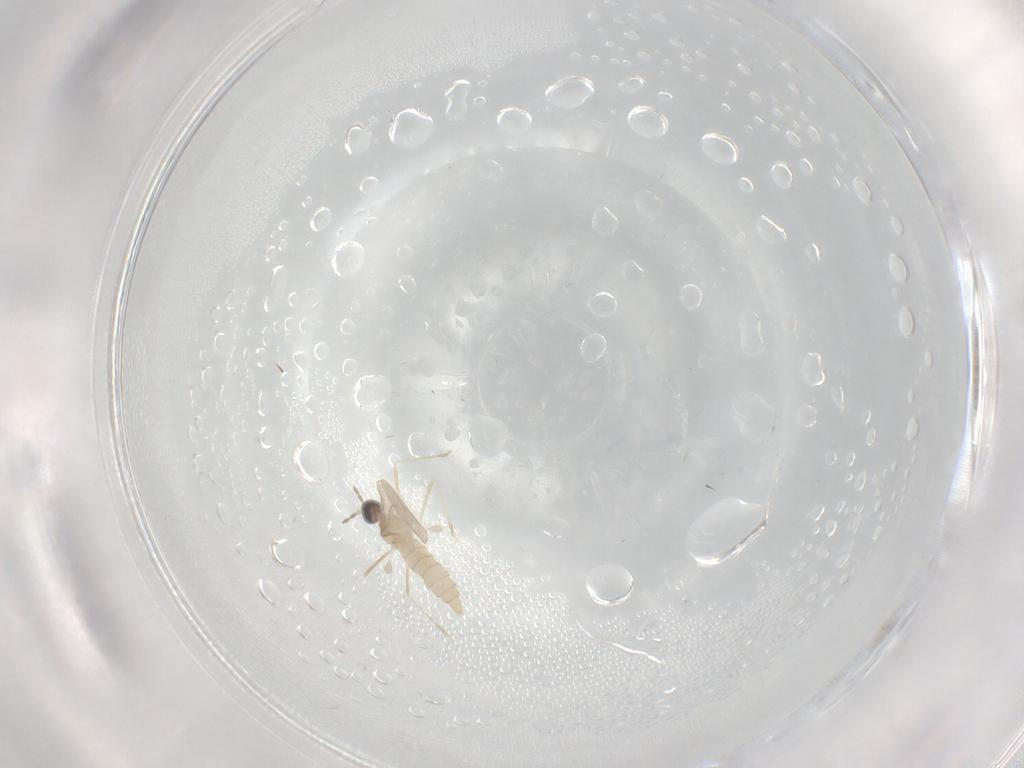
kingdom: Animalia
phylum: Arthropoda
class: Insecta
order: Diptera
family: Ceratopogonidae
